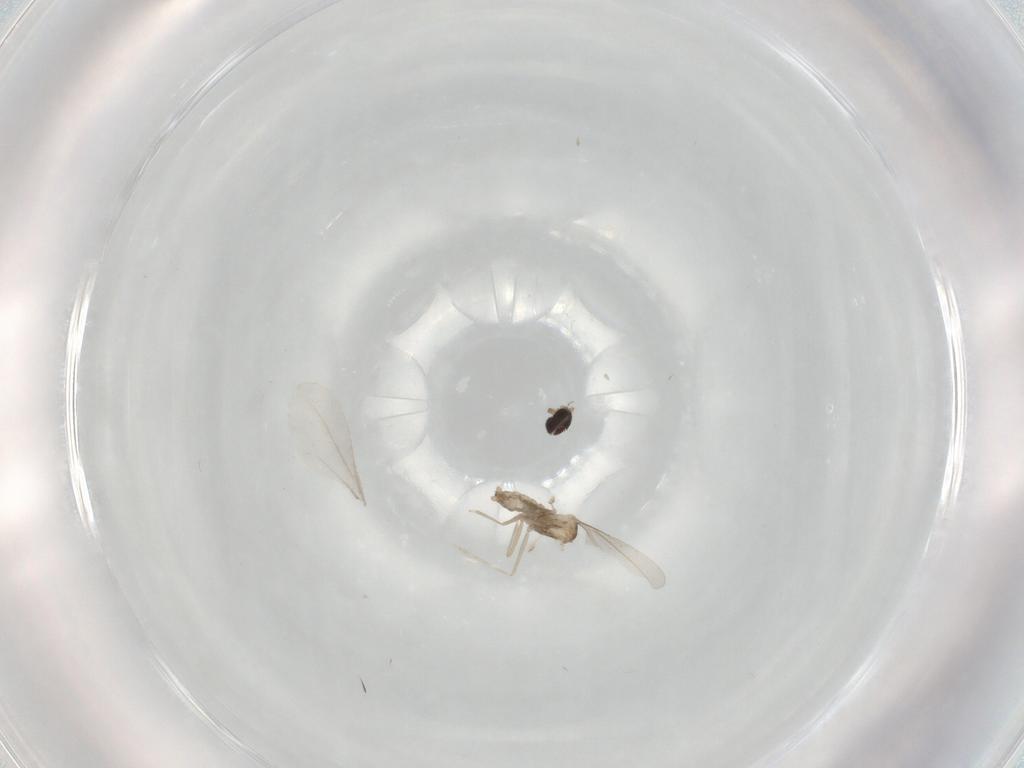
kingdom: Animalia
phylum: Arthropoda
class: Insecta
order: Diptera
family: Cecidomyiidae
